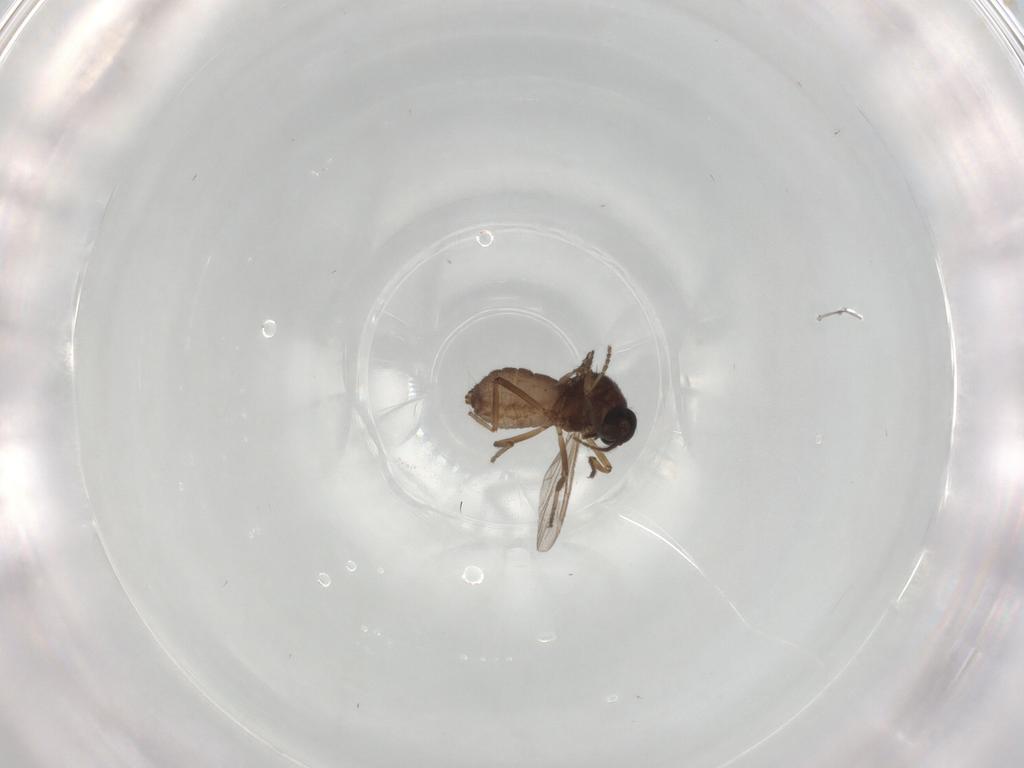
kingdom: Animalia
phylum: Arthropoda
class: Insecta
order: Diptera
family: Ceratopogonidae
